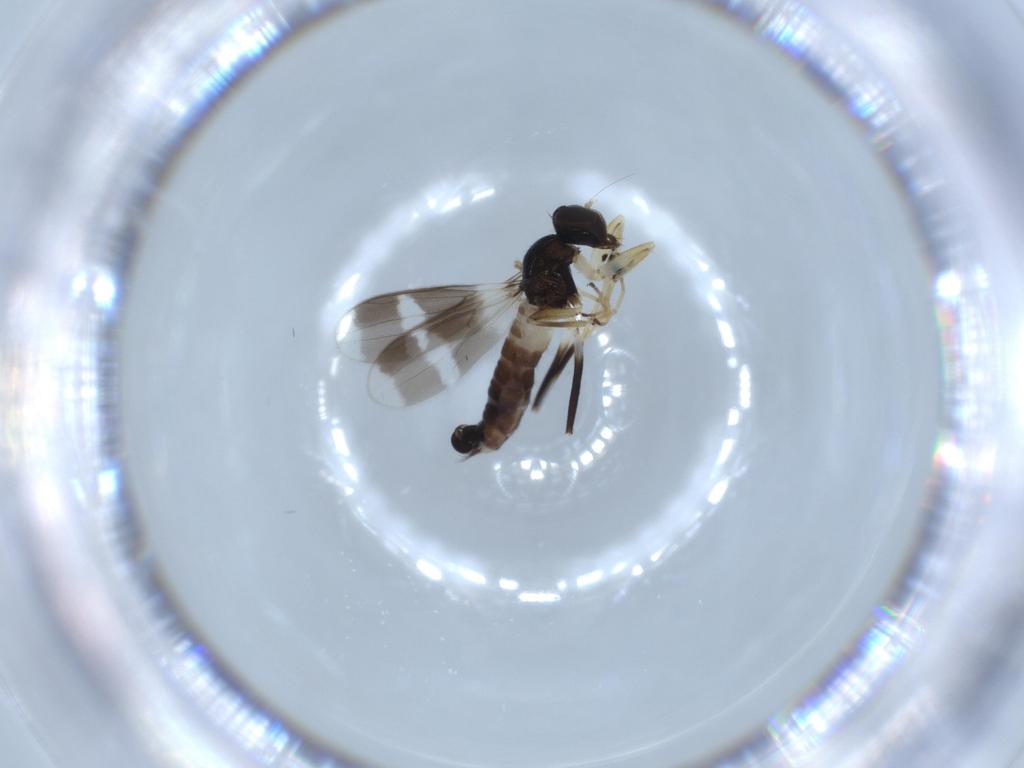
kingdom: Animalia
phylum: Arthropoda
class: Insecta
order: Diptera
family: Hybotidae
